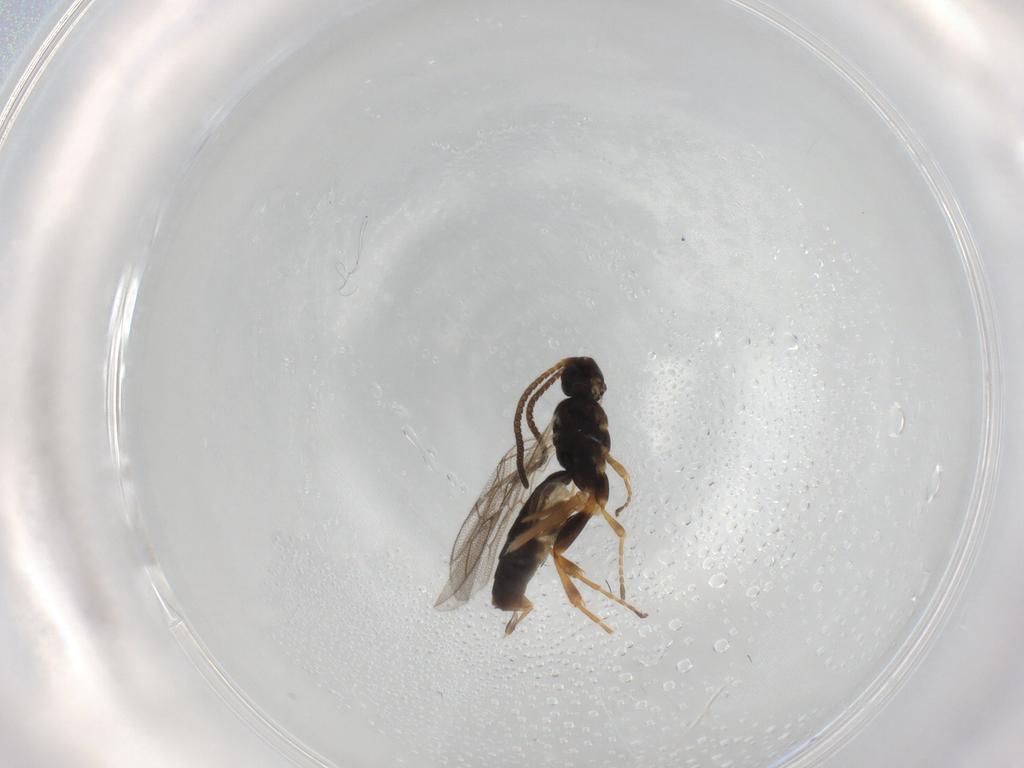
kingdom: Animalia
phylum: Arthropoda
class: Insecta
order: Hymenoptera
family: Ichneumonidae
